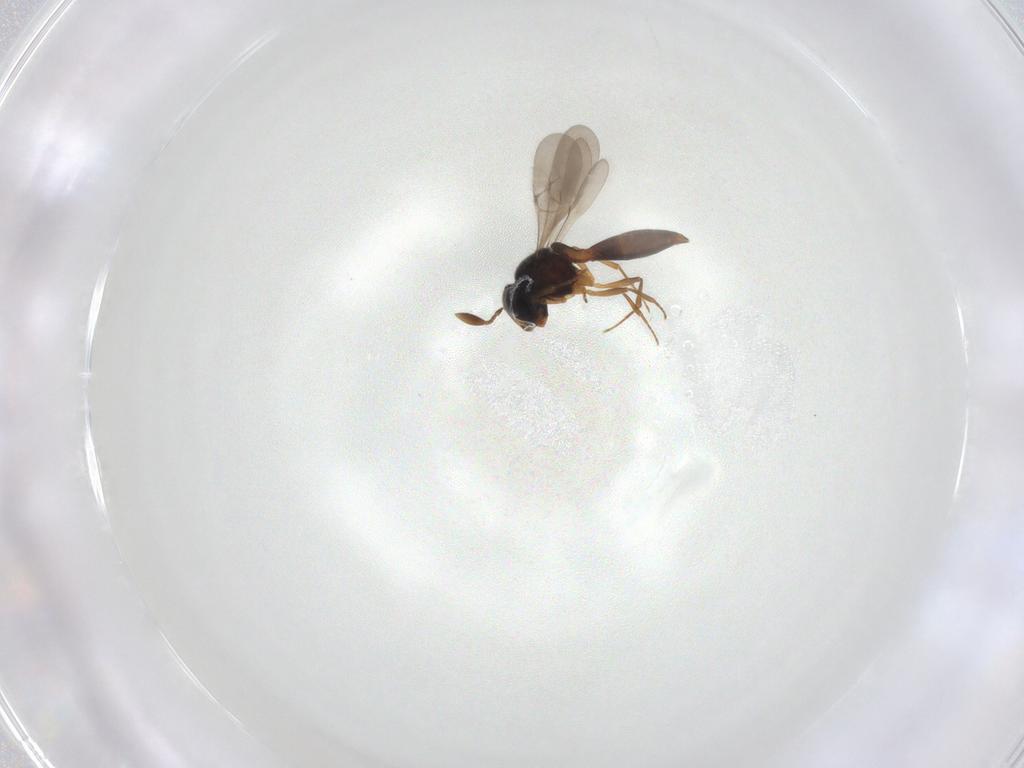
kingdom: Animalia
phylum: Arthropoda
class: Insecta
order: Hymenoptera
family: Scelionidae
